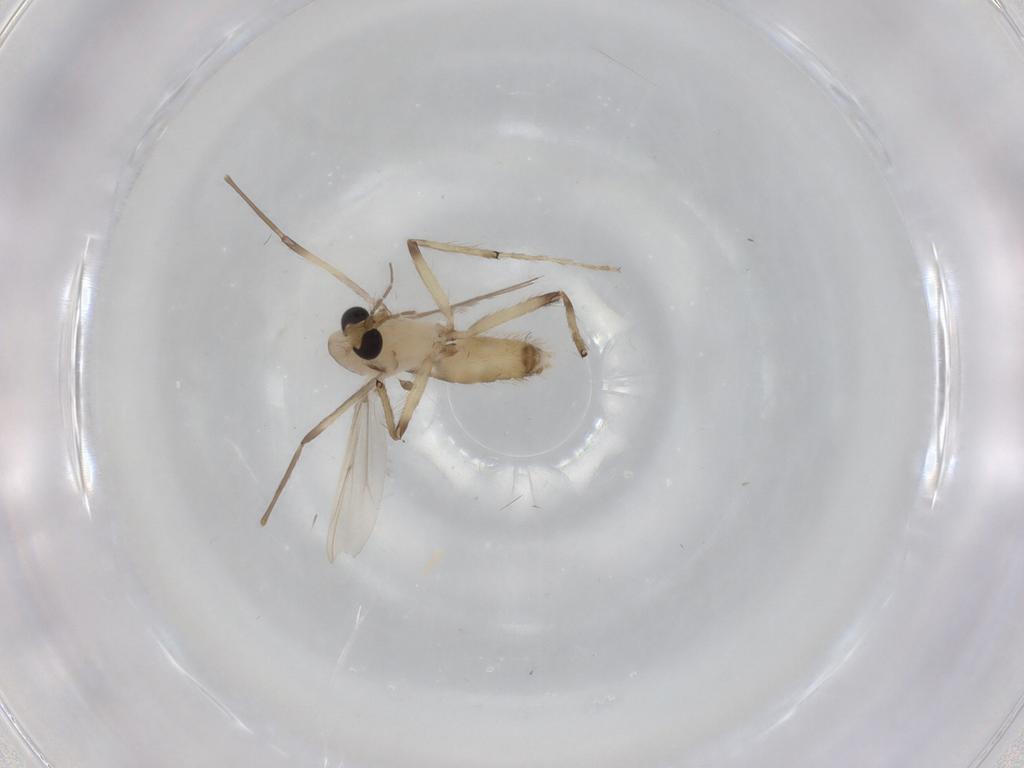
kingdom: Animalia
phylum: Arthropoda
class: Insecta
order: Diptera
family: Chironomidae
